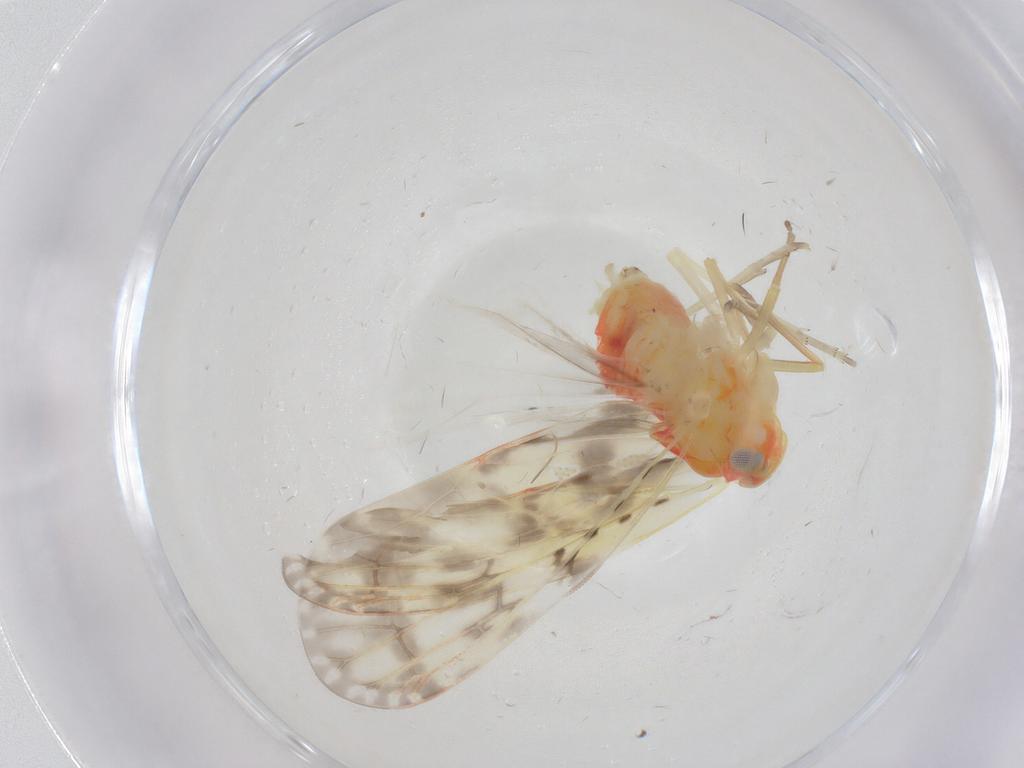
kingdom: Animalia
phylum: Arthropoda
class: Insecta
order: Hemiptera
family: Derbidae
